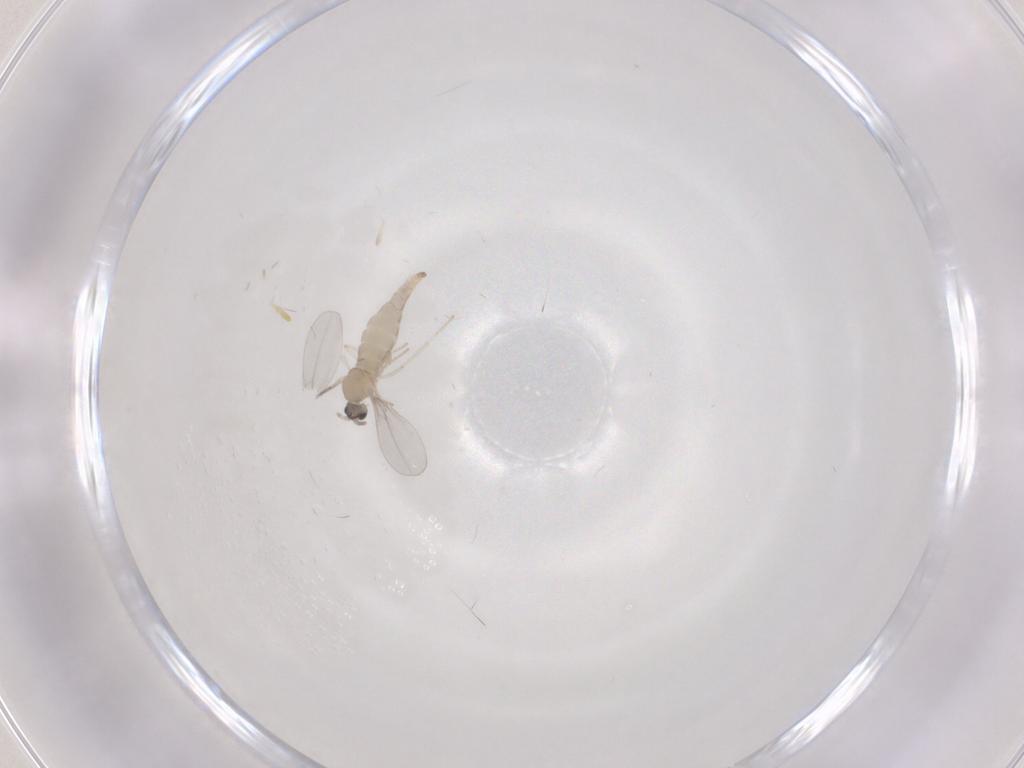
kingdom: Animalia
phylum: Arthropoda
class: Insecta
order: Diptera
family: Cecidomyiidae
